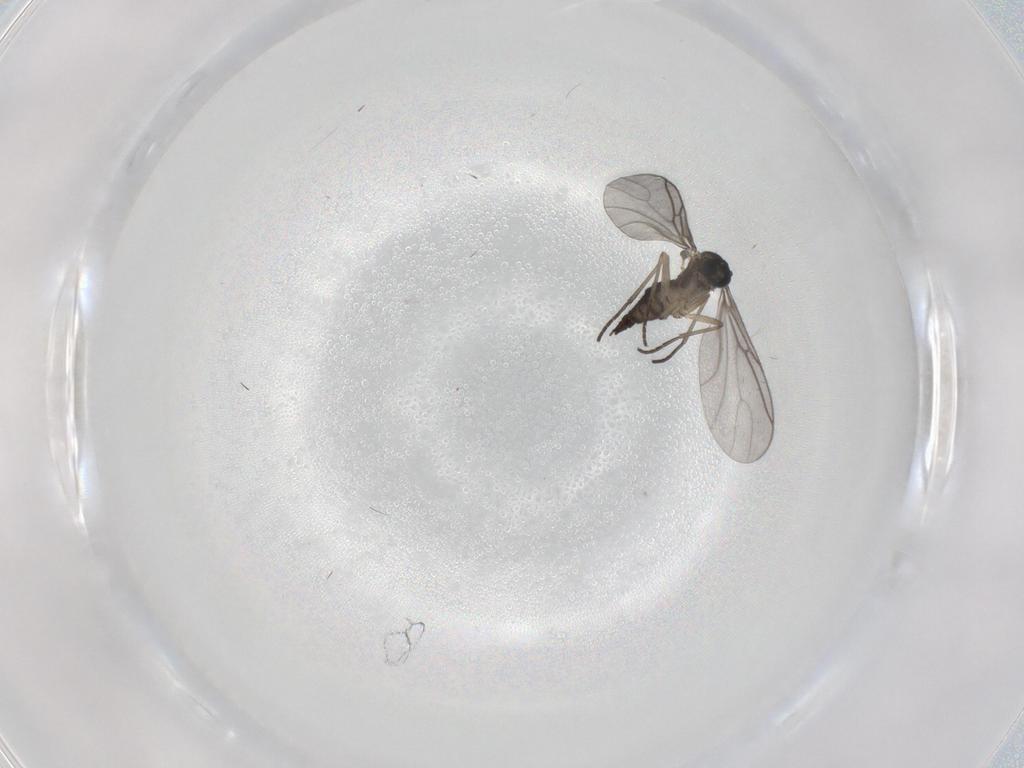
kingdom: Animalia
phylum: Arthropoda
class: Insecta
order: Diptera
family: Sciaridae
